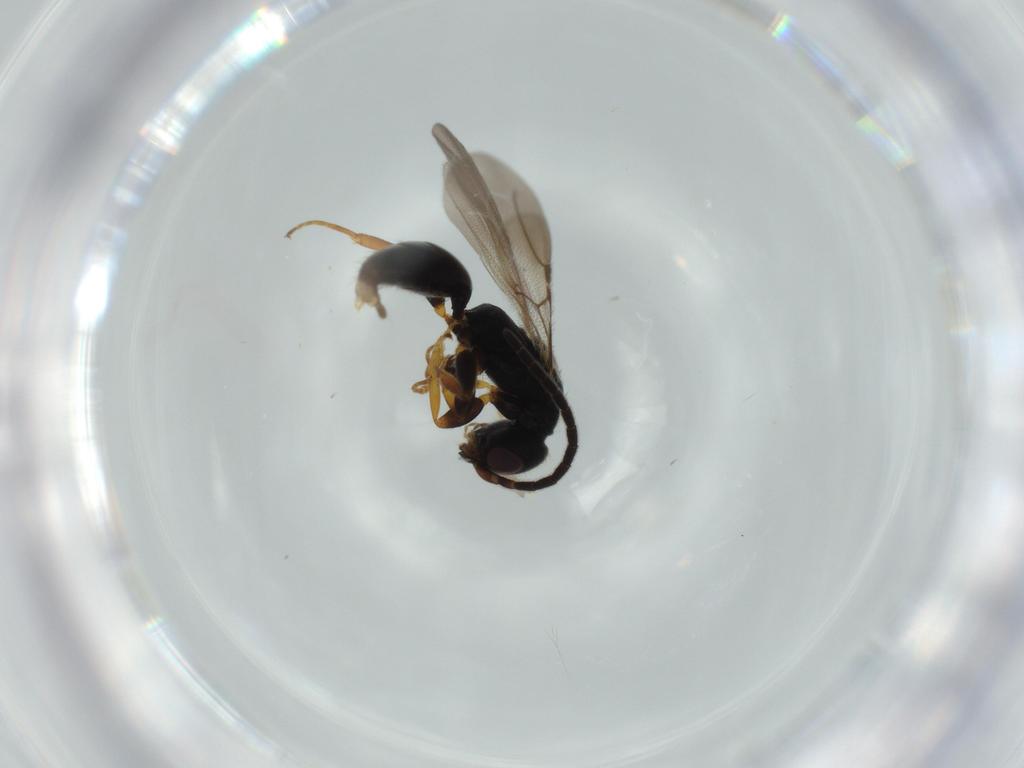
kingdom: Animalia
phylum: Arthropoda
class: Insecta
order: Hymenoptera
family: Bethylidae
